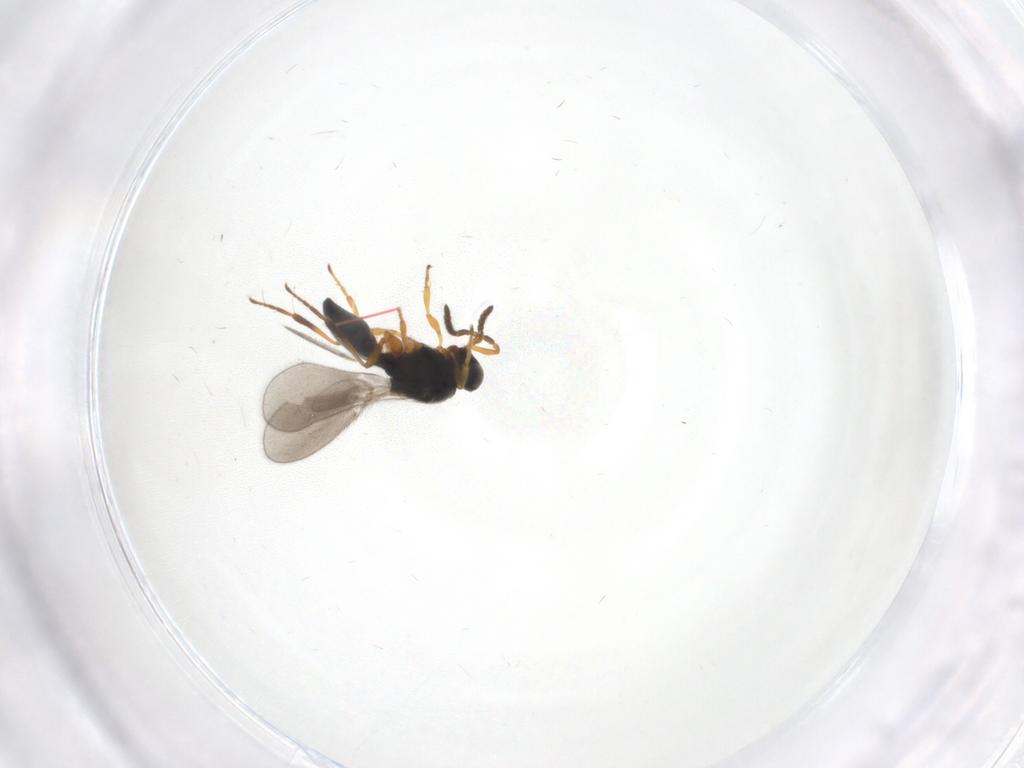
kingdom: Animalia
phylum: Arthropoda
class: Insecta
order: Hymenoptera
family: Platygastridae
